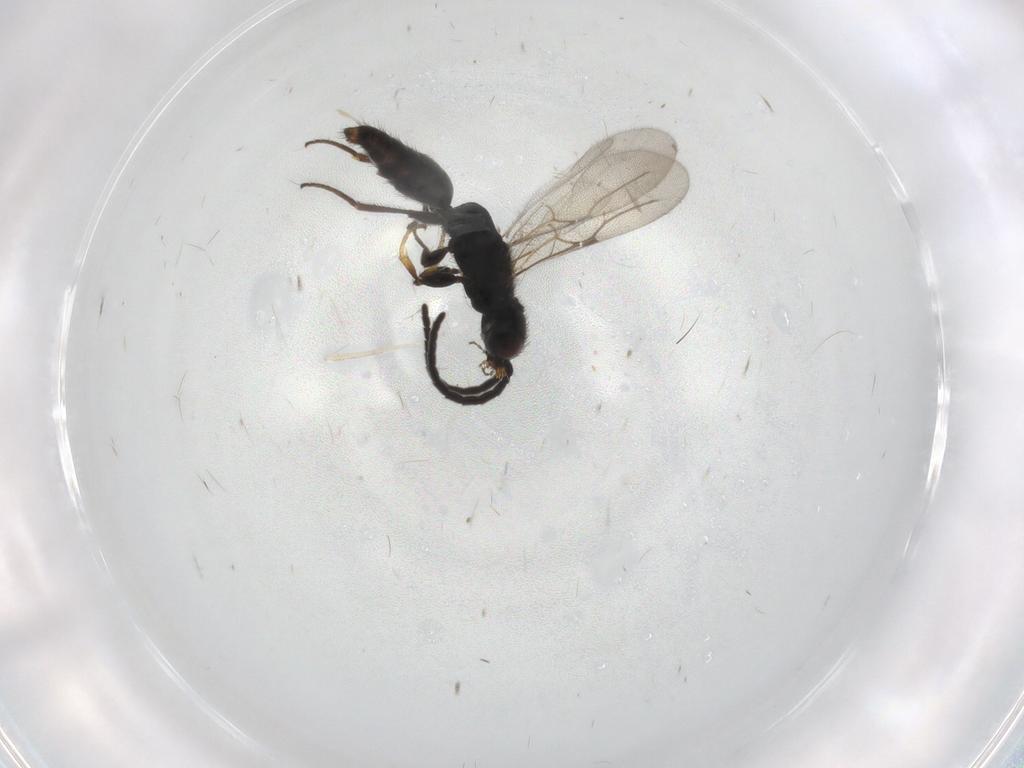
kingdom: Animalia
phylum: Arthropoda
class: Insecta
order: Hymenoptera
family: Bethylidae
